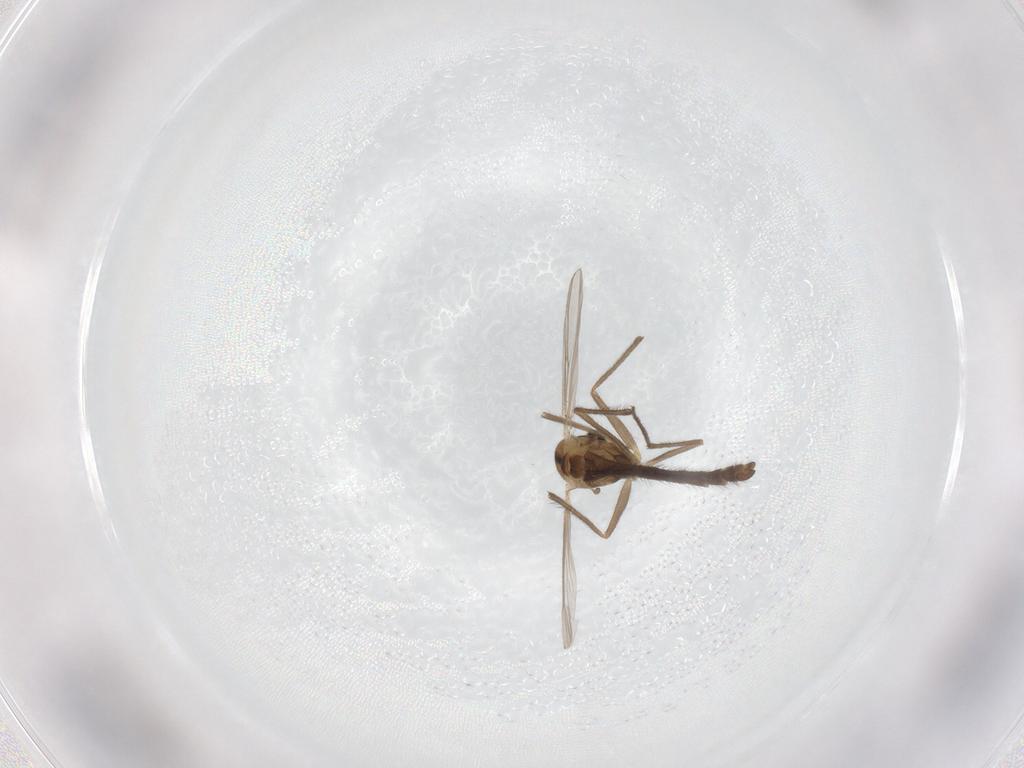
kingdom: Animalia
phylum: Arthropoda
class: Insecta
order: Diptera
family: Chironomidae
